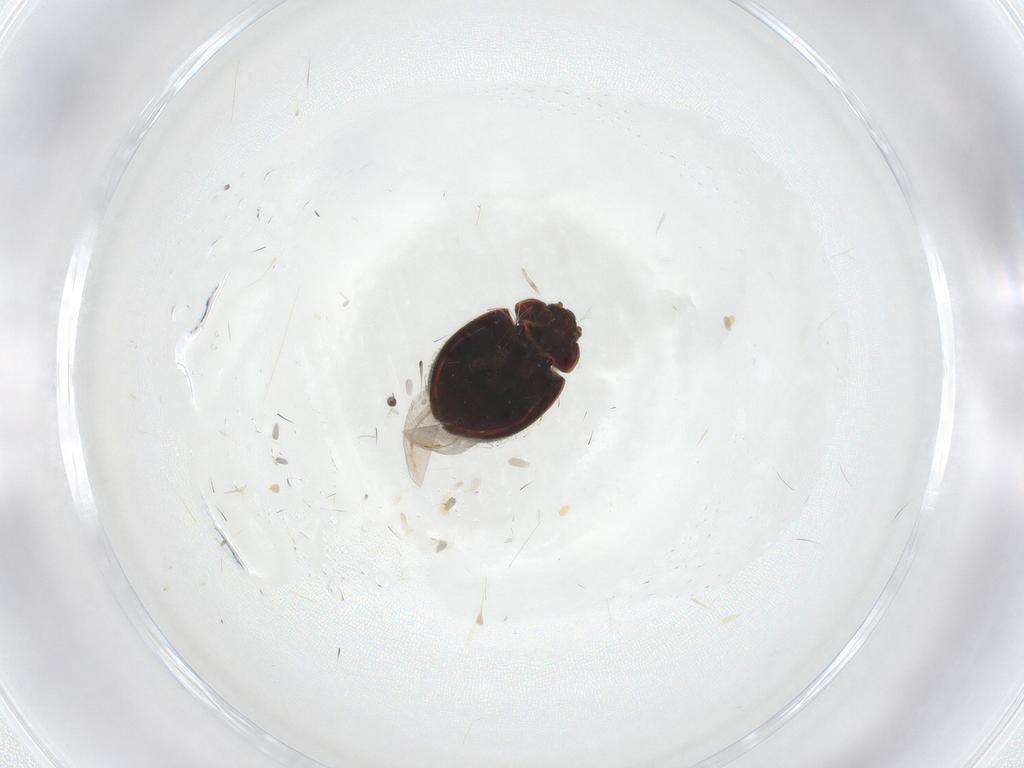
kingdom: Animalia
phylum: Arthropoda
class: Insecta
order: Coleoptera
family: Coccinellidae
